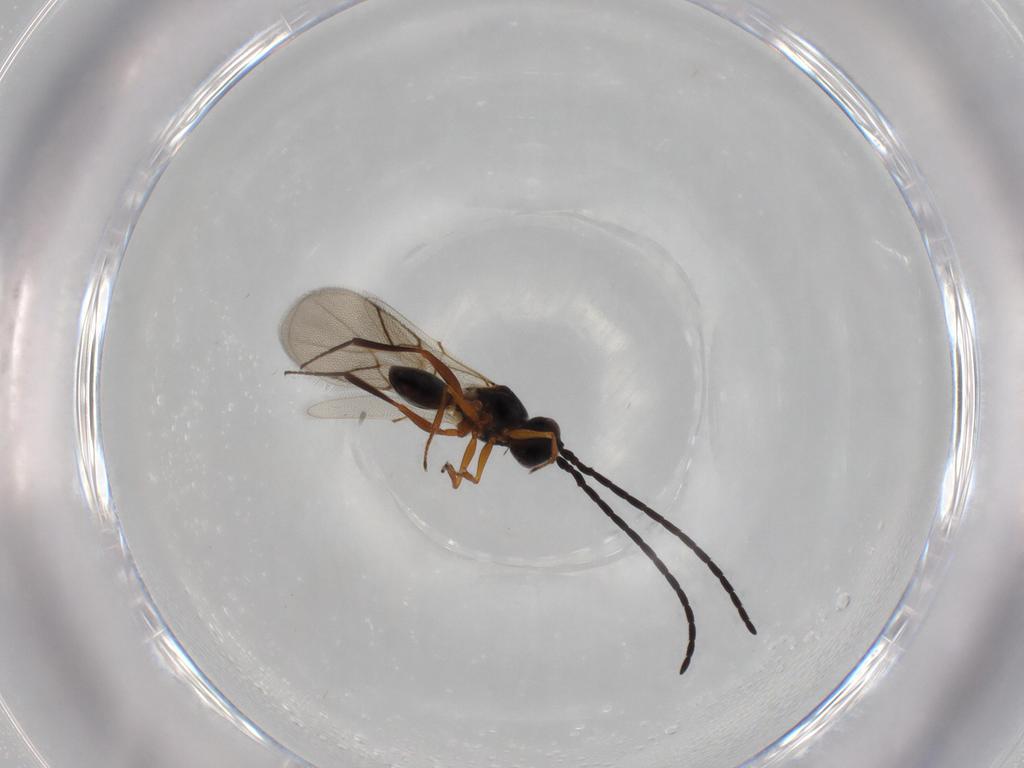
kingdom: Animalia
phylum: Arthropoda
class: Insecta
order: Hymenoptera
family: Figitidae
